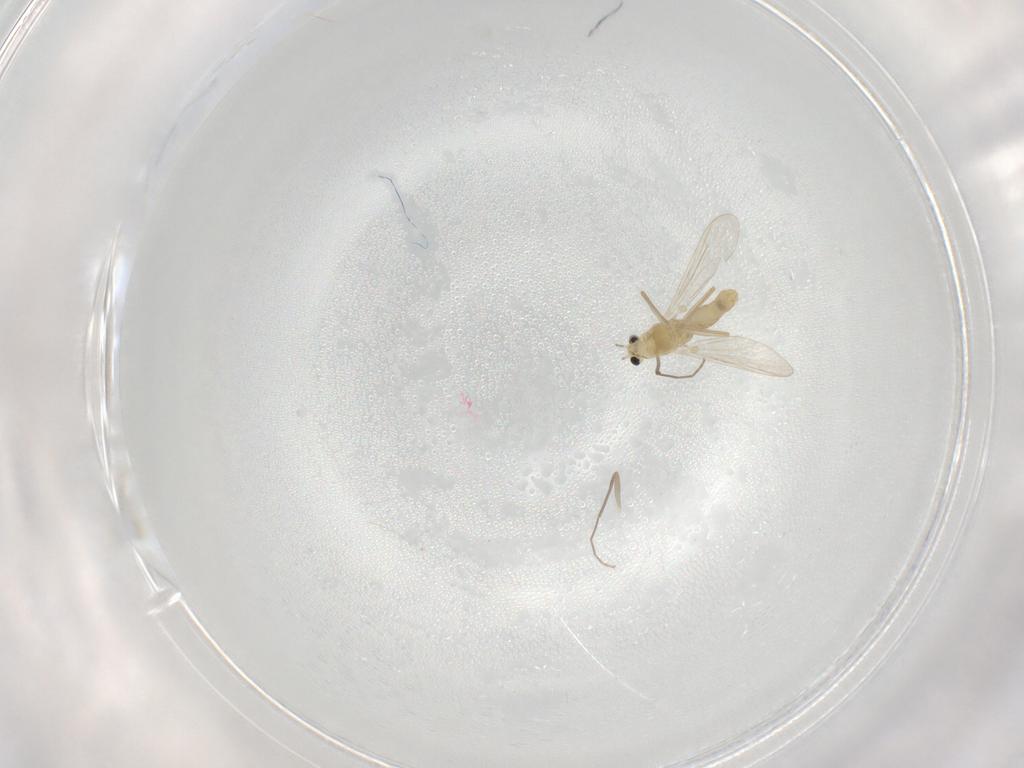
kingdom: Animalia
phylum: Arthropoda
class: Insecta
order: Diptera
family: Chironomidae
